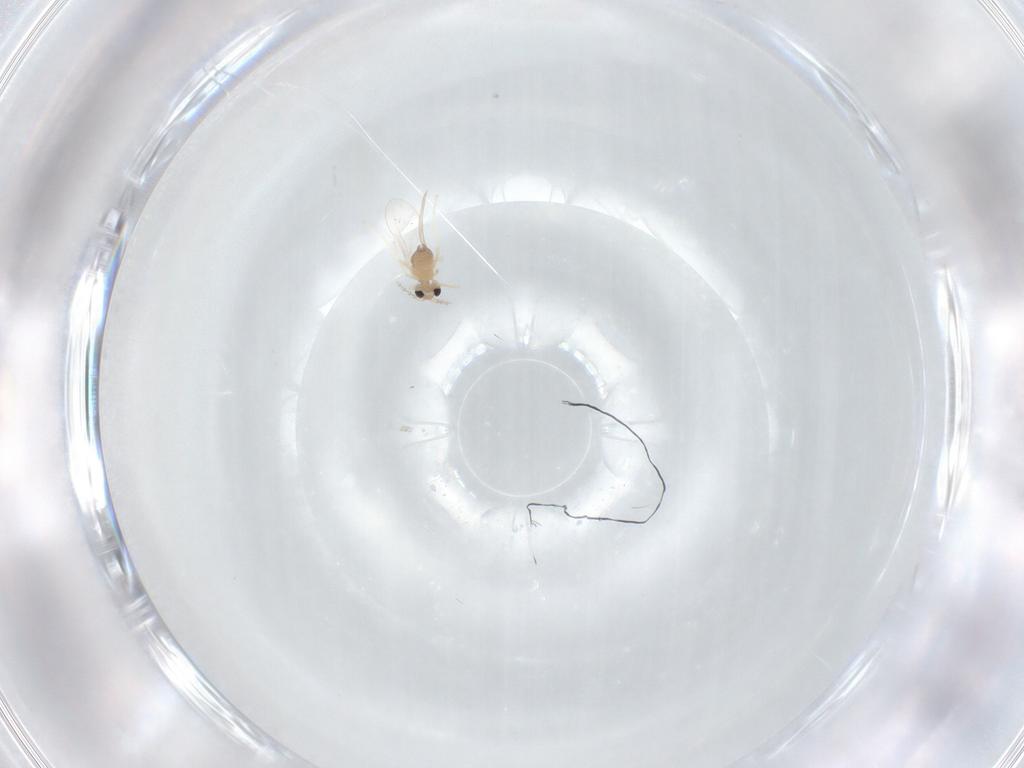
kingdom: Animalia
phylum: Arthropoda
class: Insecta
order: Diptera
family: Cecidomyiidae
